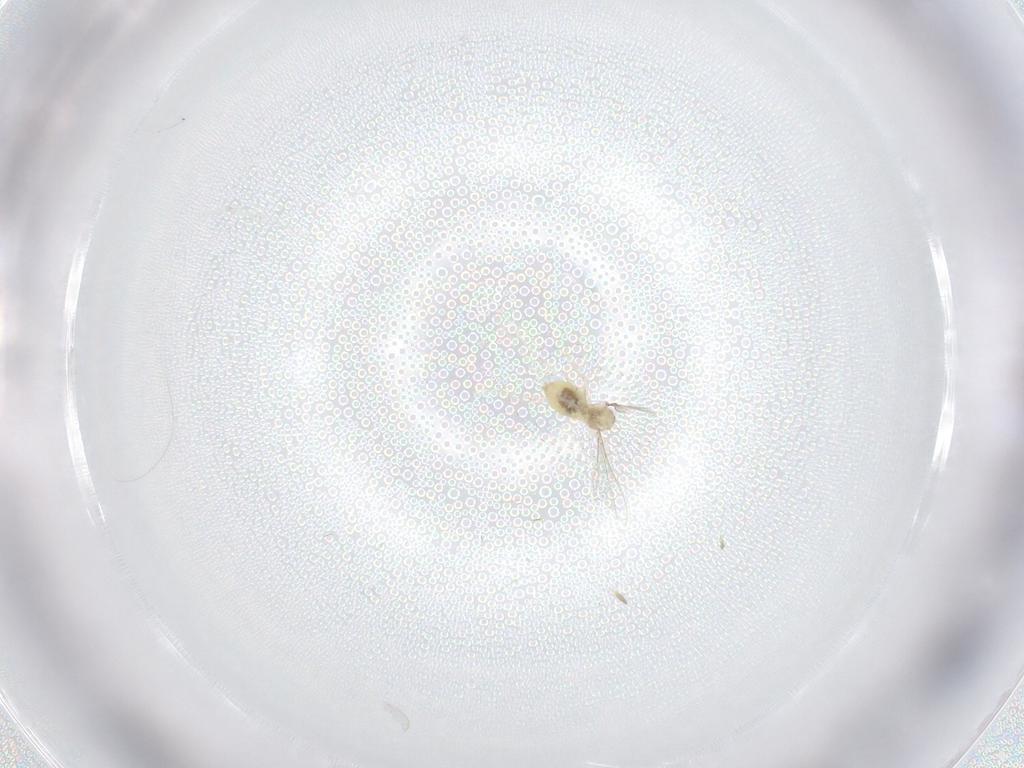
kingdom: Animalia
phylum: Arthropoda
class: Insecta
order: Diptera
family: Cecidomyiidae
